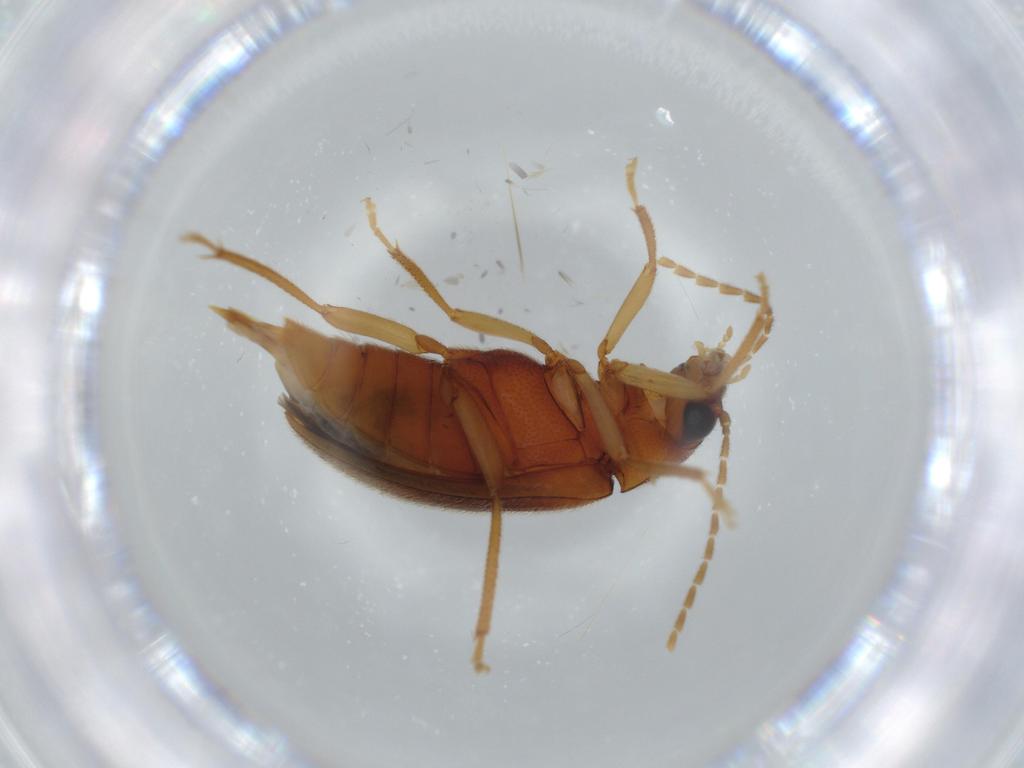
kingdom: Animalia
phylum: Arthropoda
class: Insecta
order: Coleoptera
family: Ptilodactylidae
